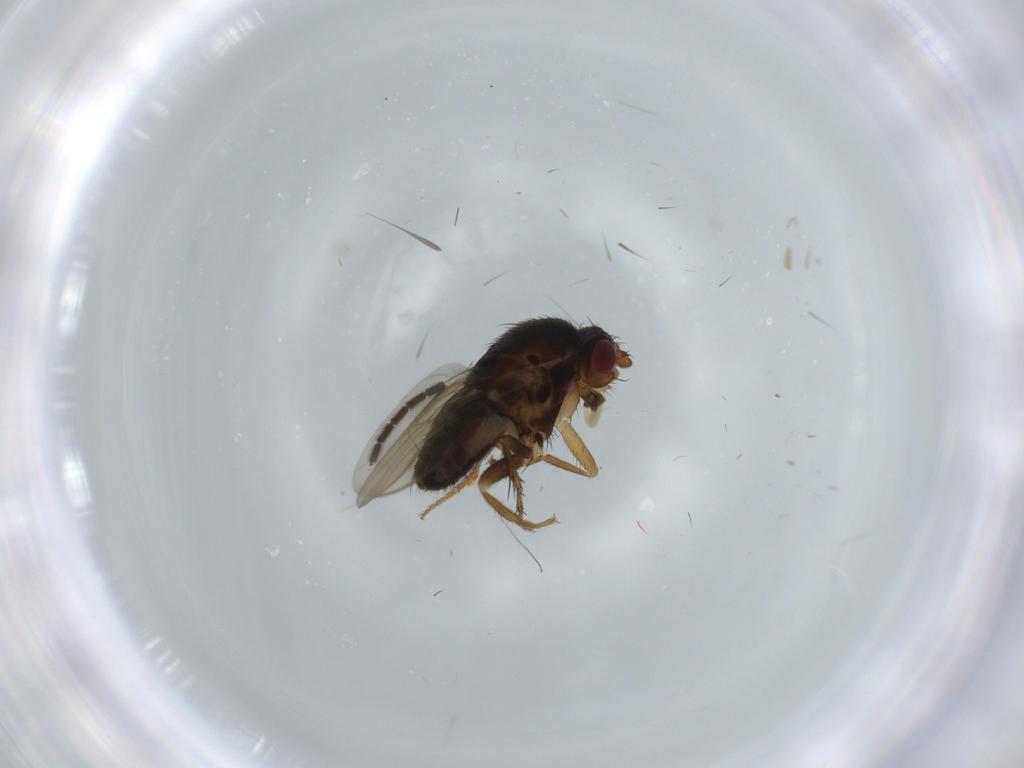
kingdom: Animalia
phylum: Arthropoda
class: Insecta
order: Diptera
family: Sphaeroceridae
